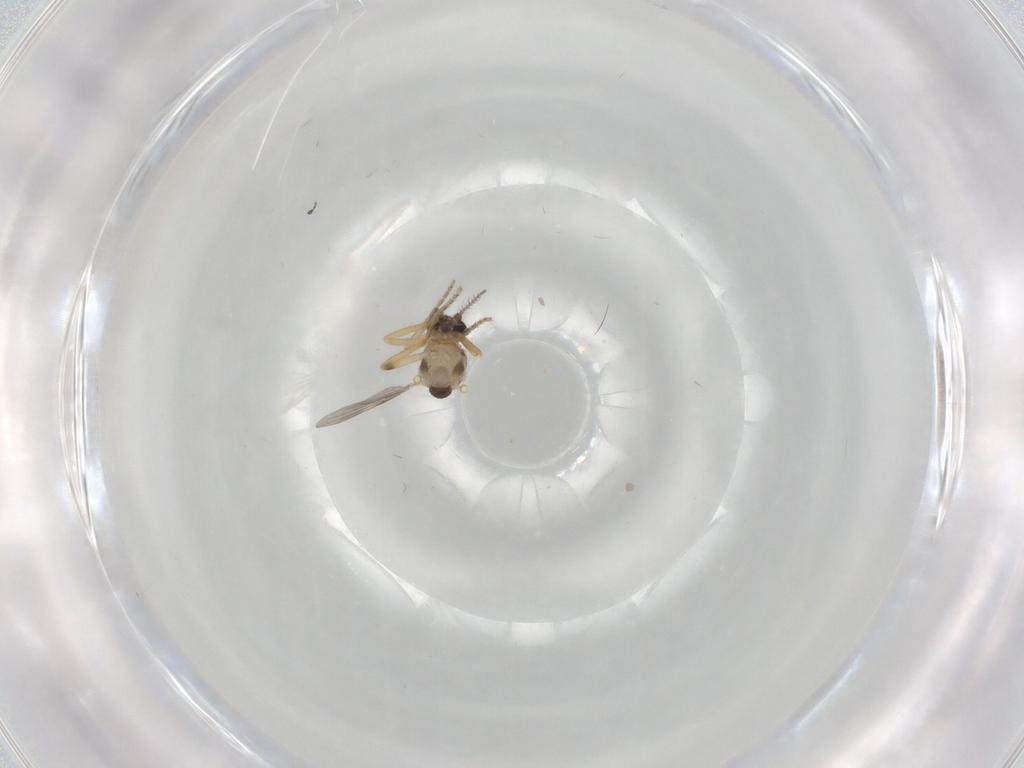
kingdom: Animalia
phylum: Arthropoda
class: Insecta
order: Diptera
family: Ceratopogonidae
